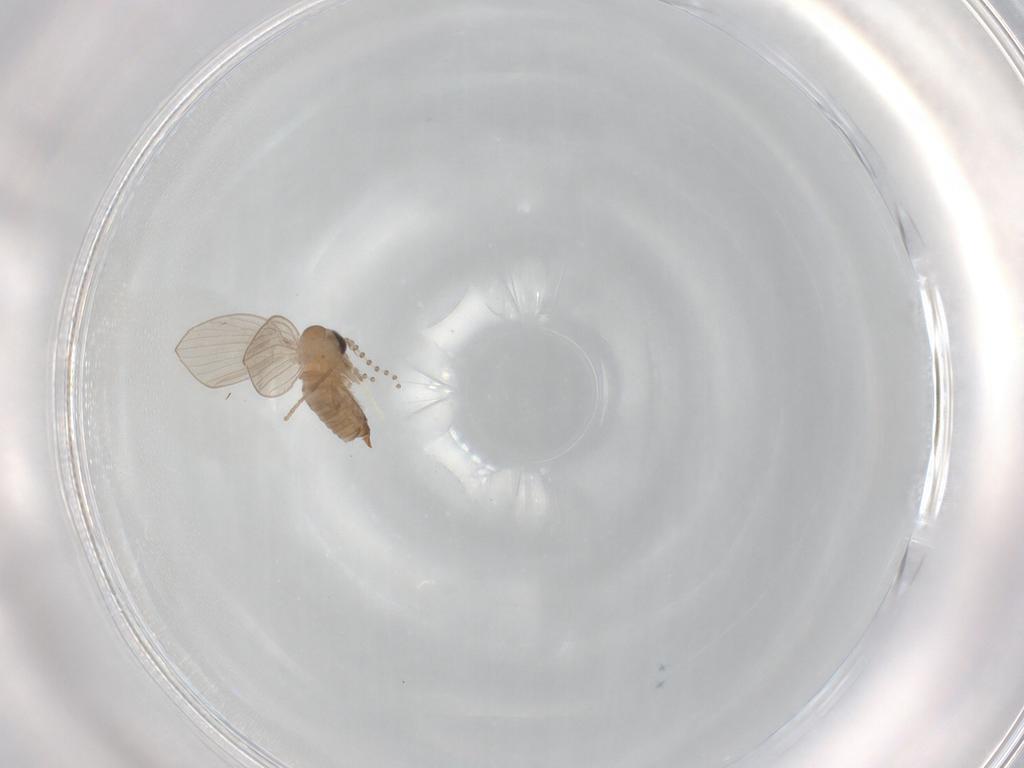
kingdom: Animalia
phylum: Arthropoda
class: Insecta
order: Diptera
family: Psychodidae
